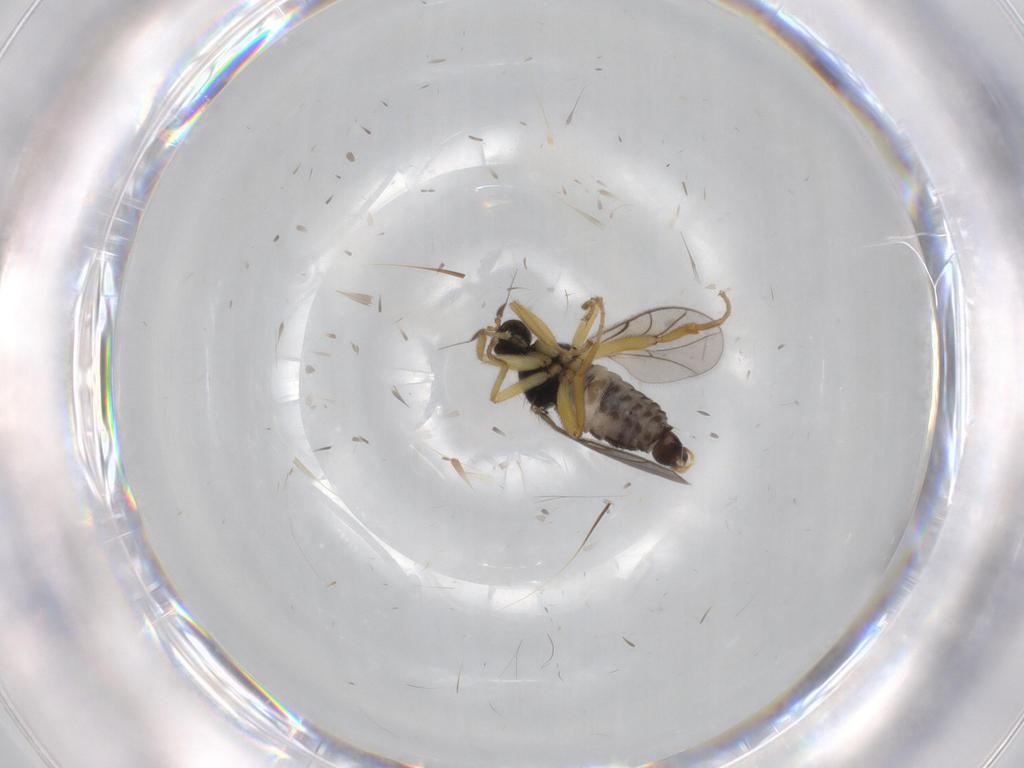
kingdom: Animalia
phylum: Arthropoda
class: Insecta
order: Diptera
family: Hybotidae
